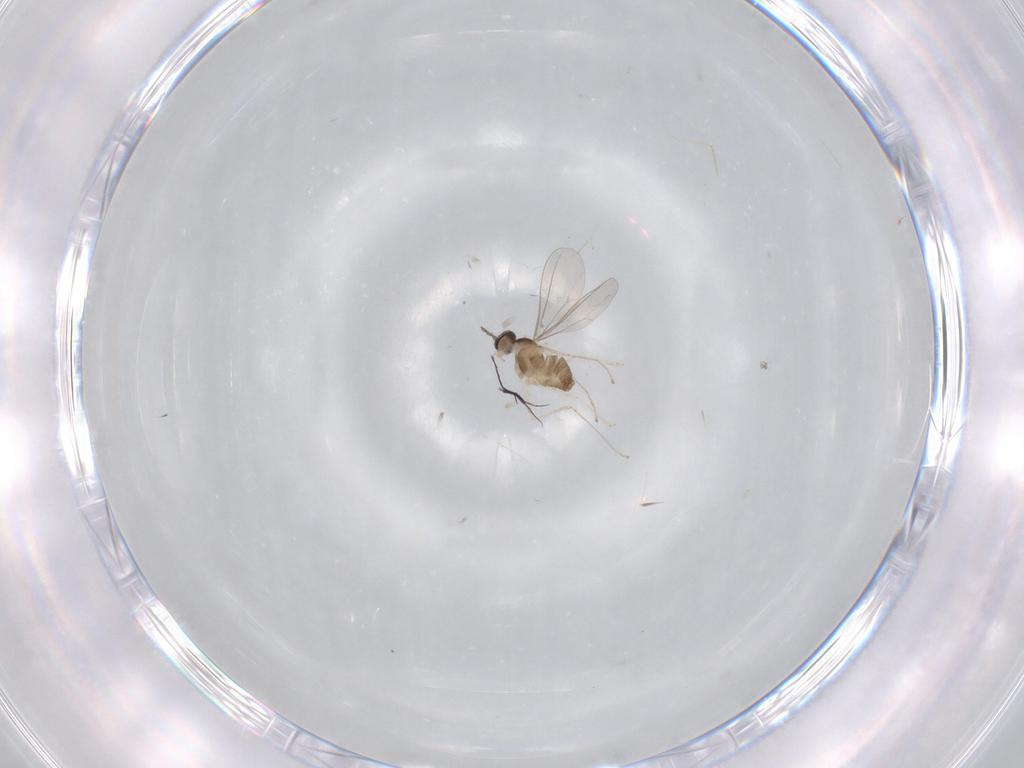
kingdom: Animalia
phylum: Arthropoda
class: Insecta
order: Diptera
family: Cecidomyiidae
